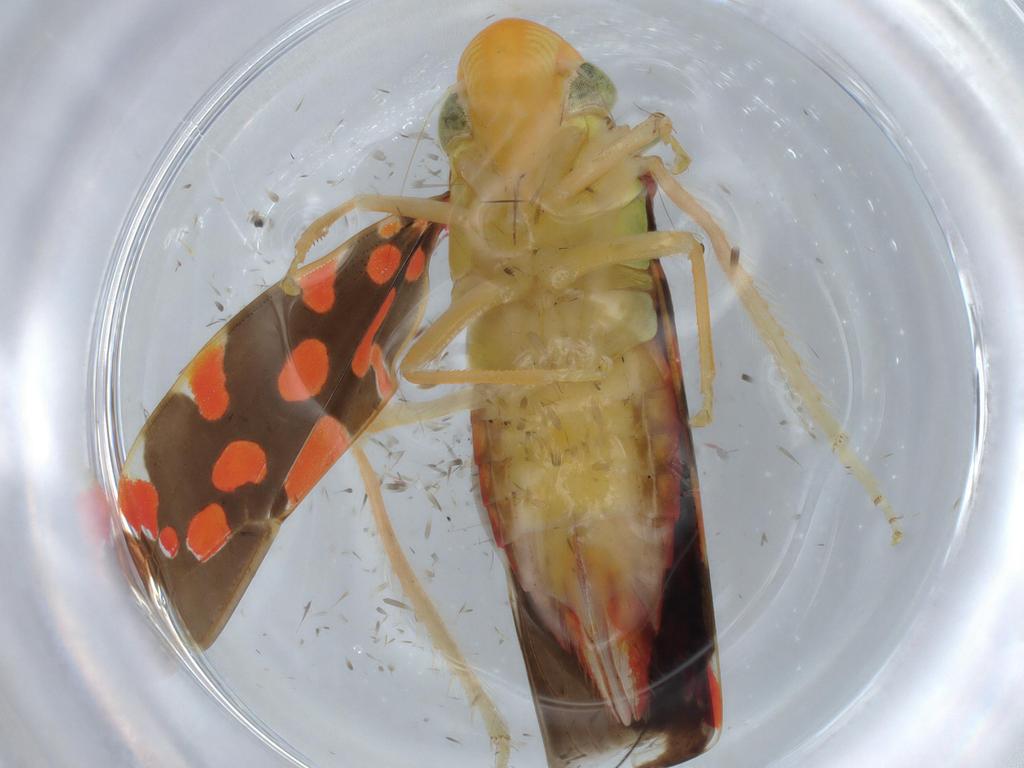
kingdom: Animalia
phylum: Arthropoda
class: Insecta
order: Hemiptera
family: Cicadellidae
